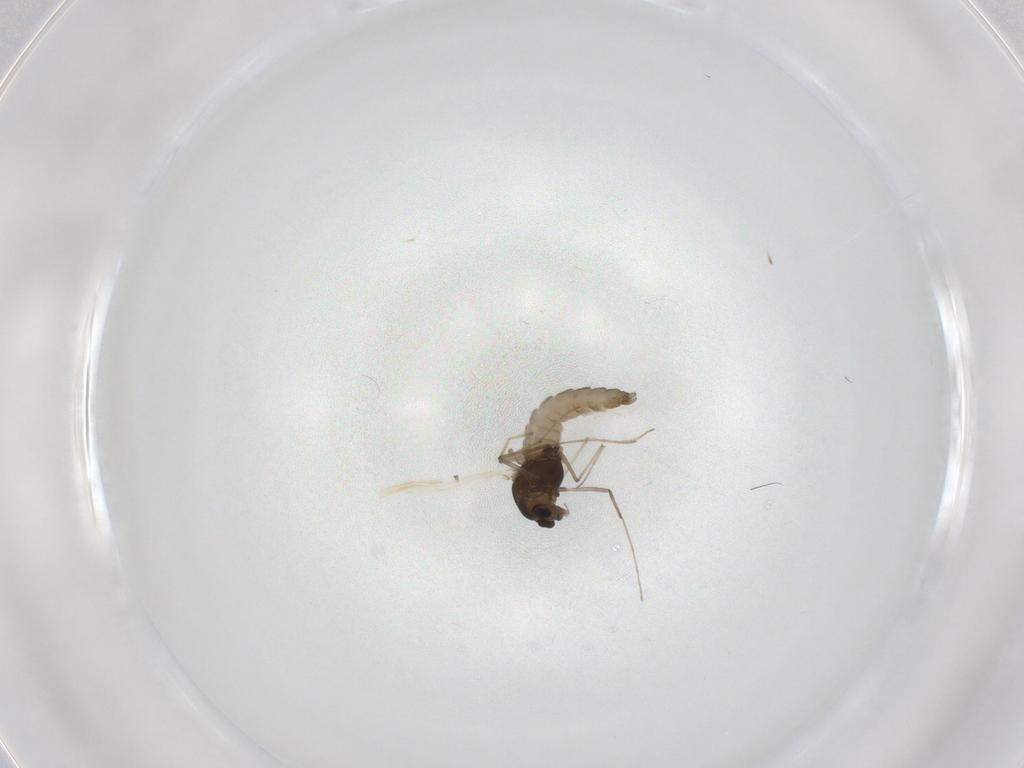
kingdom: Animalia
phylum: Arthropoda
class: Insecta
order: Diptera
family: Chironomidae
